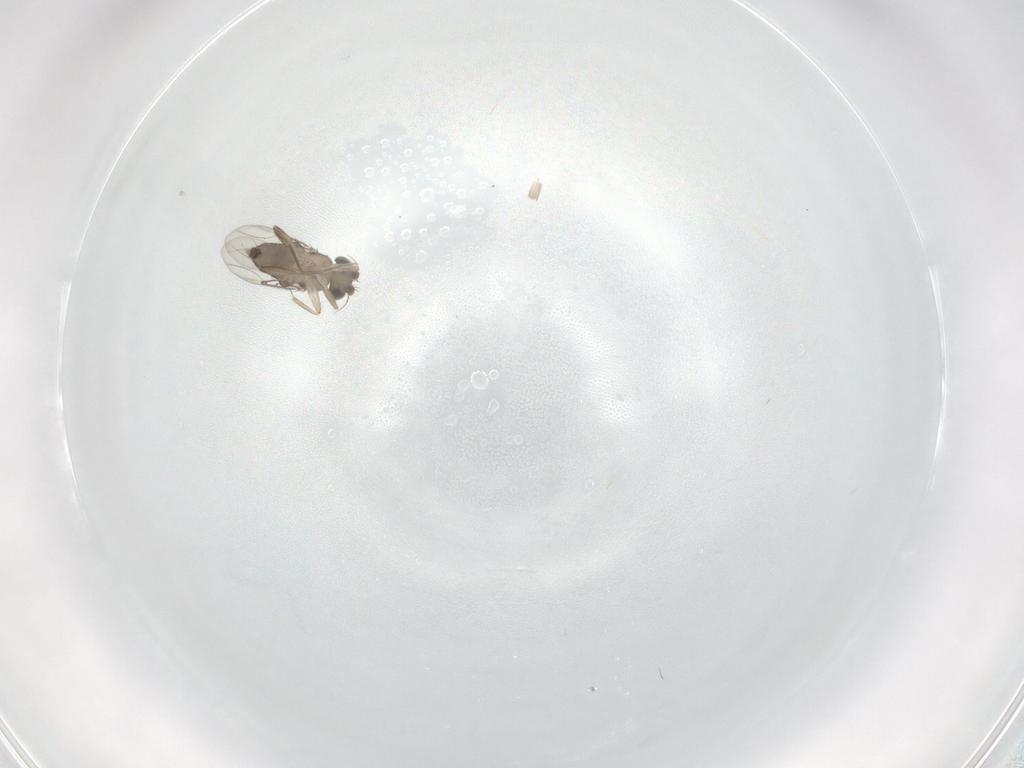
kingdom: Animalia
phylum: Arthropoda
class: Insecta
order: Diptera
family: Phoridae
